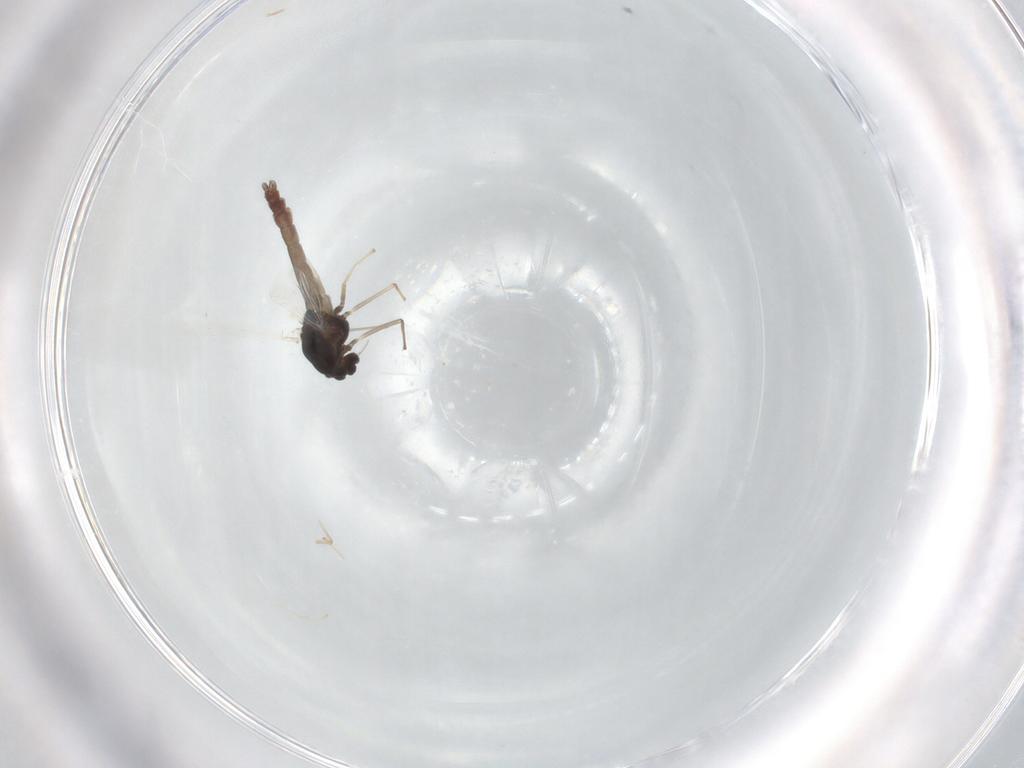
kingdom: Animalia
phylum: Arthropoda
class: Insecta
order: Diptera
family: Chironomidae
